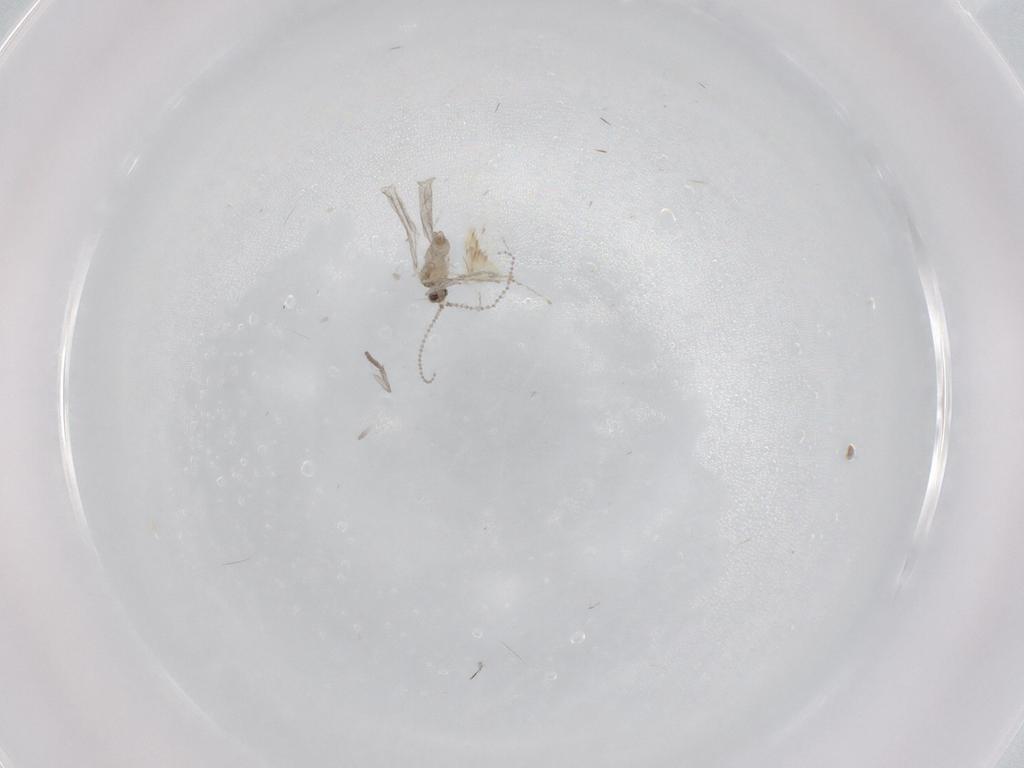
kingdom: Animalia
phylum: Arthropoda
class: Insecta
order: Diptera
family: Cecidomyiidae
